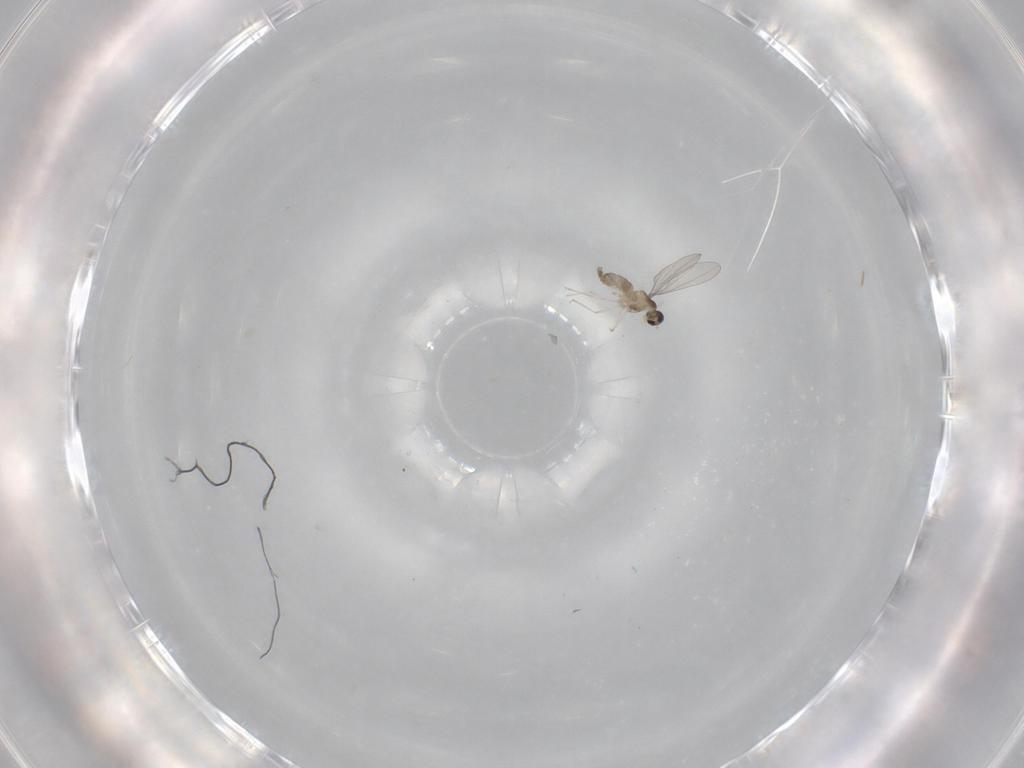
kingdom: Animalia
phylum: Arthropoda
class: Insecta
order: Diptera
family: Cecidomyiidae
